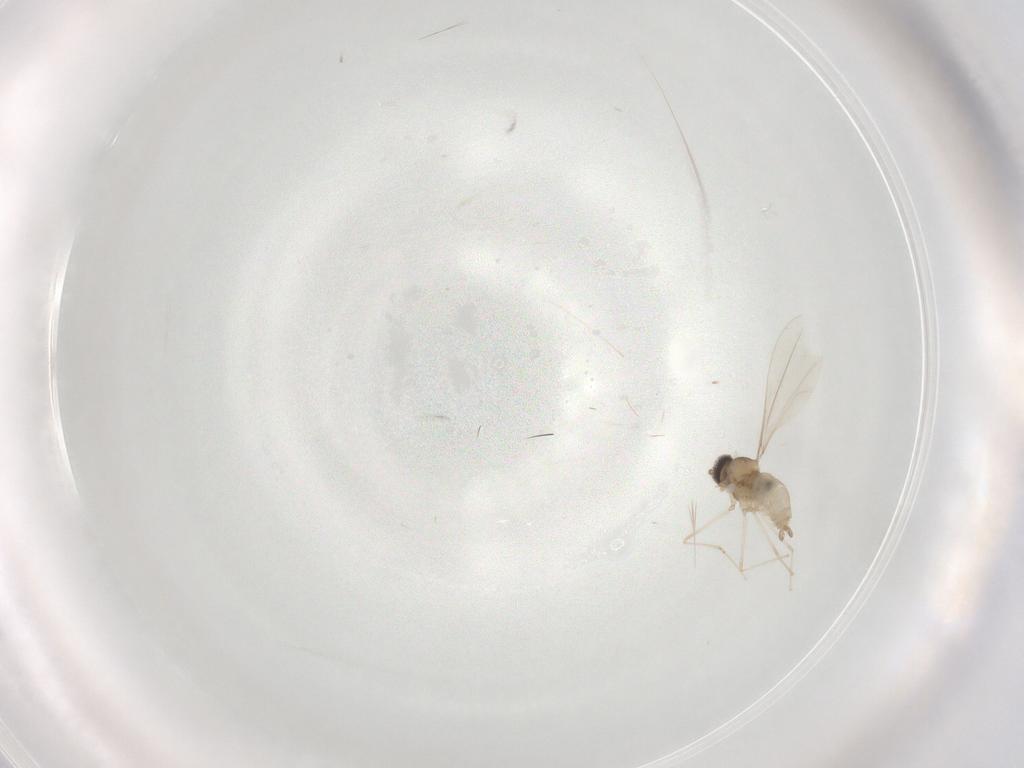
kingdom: Animalia
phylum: Arthropoda
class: Insecta
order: Diptera
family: Cecidomyiidae
